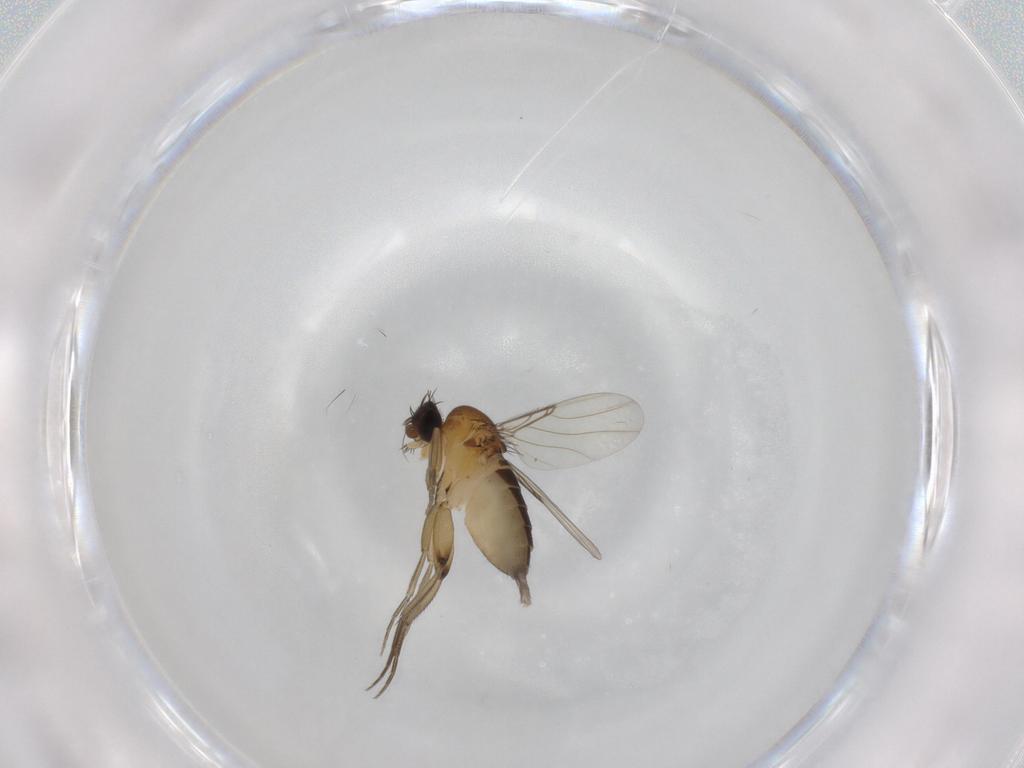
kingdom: Animalia
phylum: Arthropoda
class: Insecta
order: Diptera
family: Phoridae
